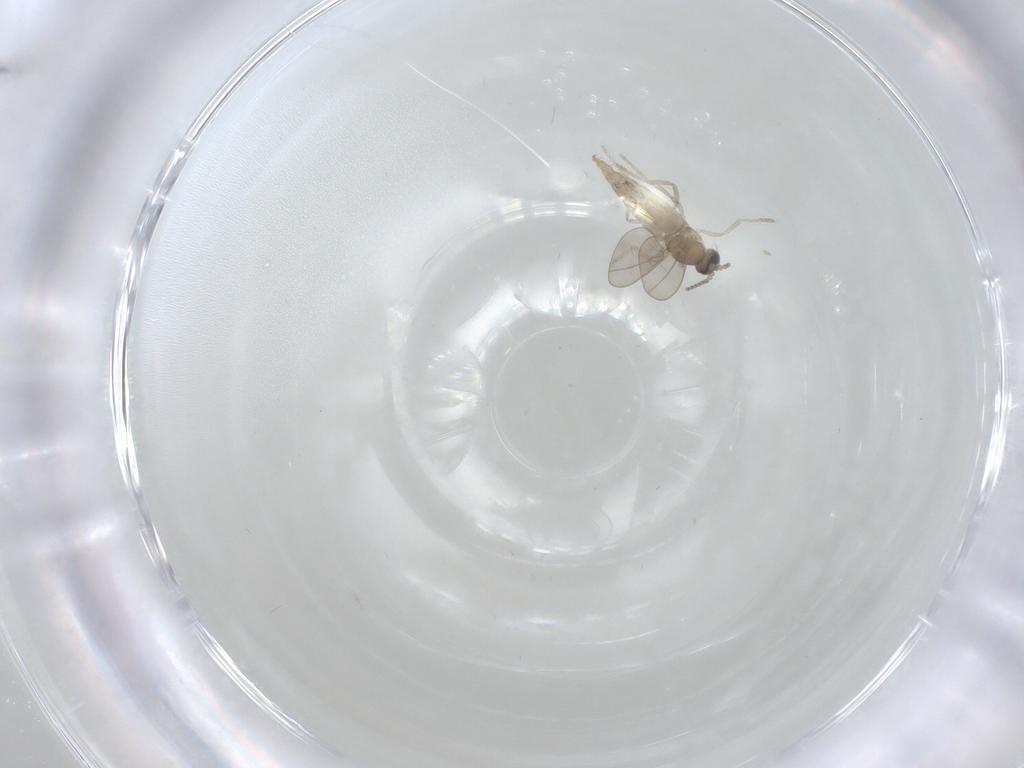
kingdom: Animalia
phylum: Arthropoda
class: Insecta
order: Diptera
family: Cecidomyiidae
